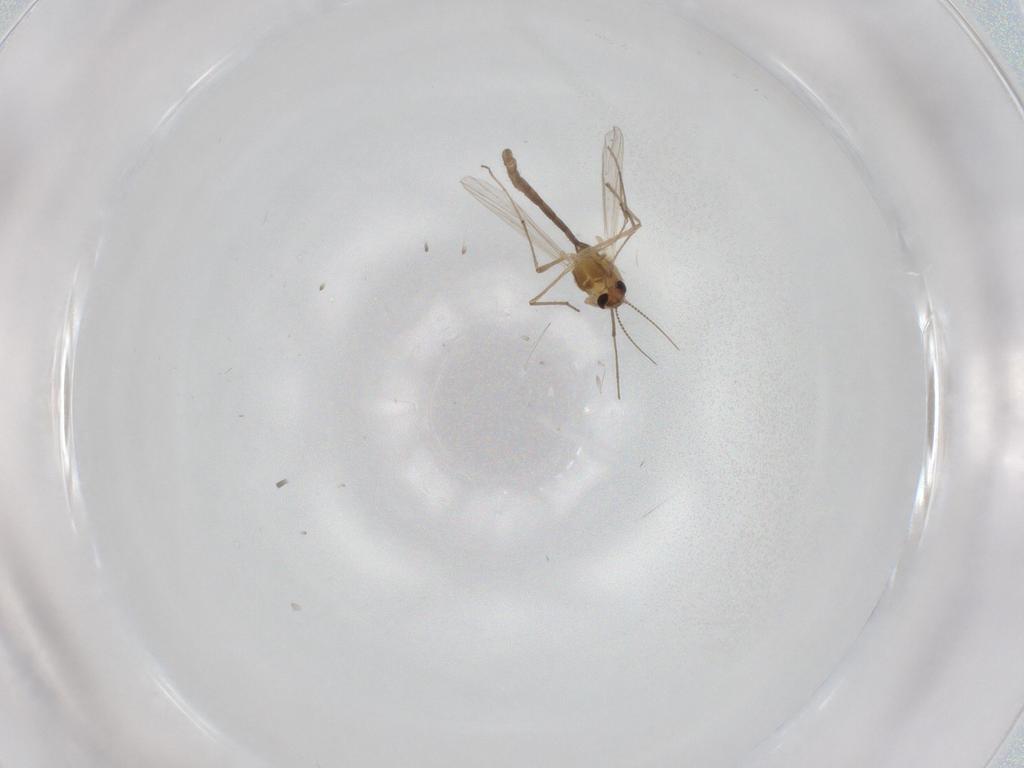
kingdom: Animalia
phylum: Arthropoda
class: Insecta
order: Diptera
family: Chironomidae
